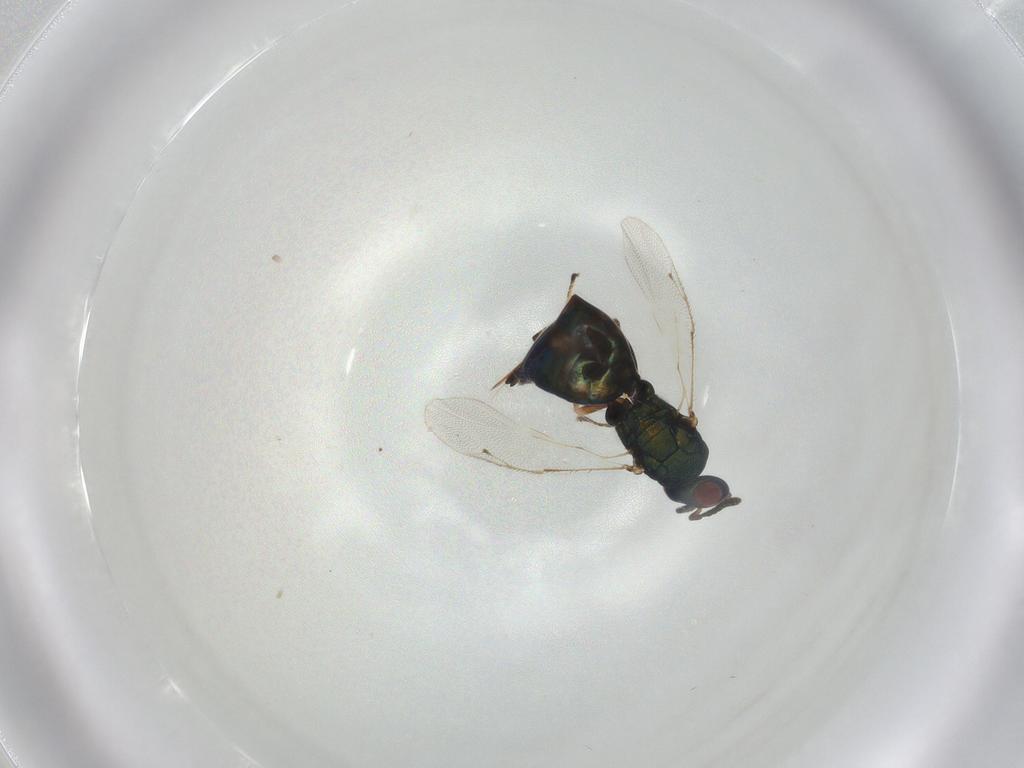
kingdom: Animalia
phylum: Arthropoda
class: Insecta
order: Hymenoptera
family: Pteromalidae
